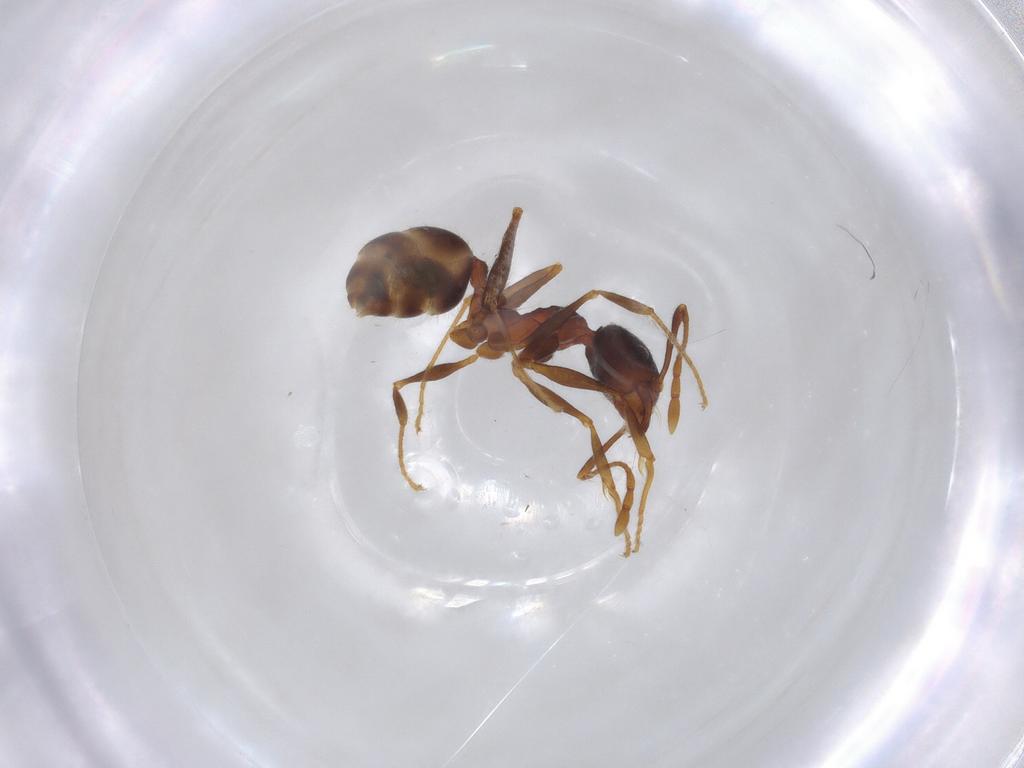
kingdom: Animalia
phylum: Arthropoda
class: Insecta
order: Hymenoptera
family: Formicidae
